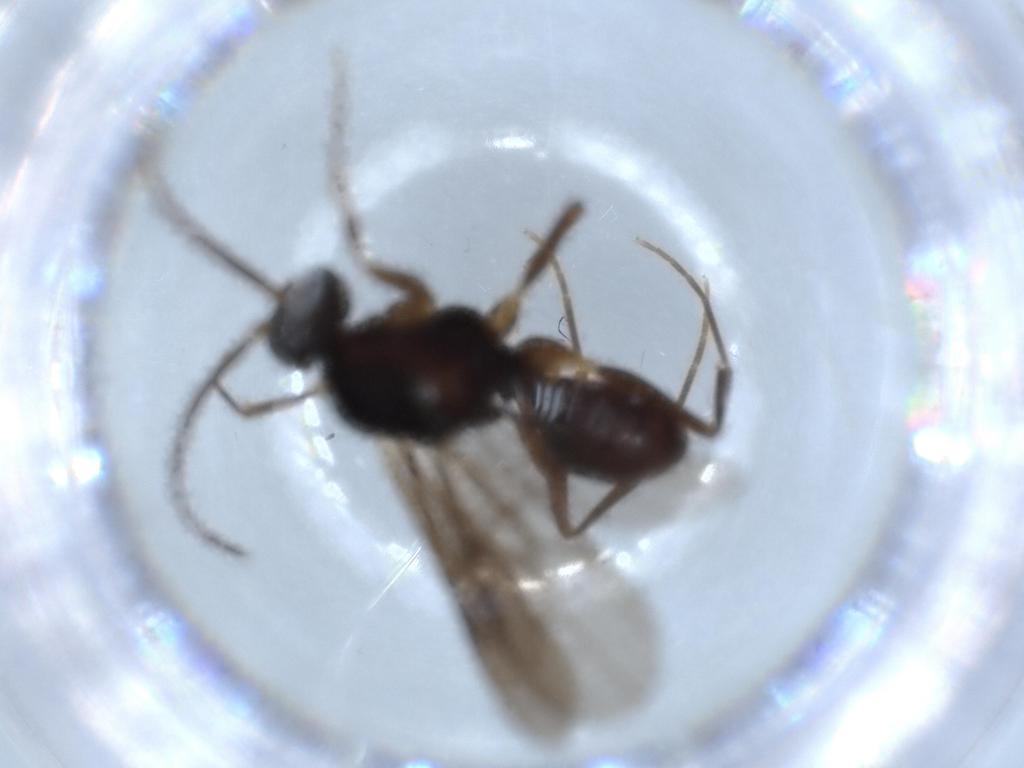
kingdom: Animalia
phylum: Arthropoda
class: Insecta
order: Hymenoptera
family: Formicidae
